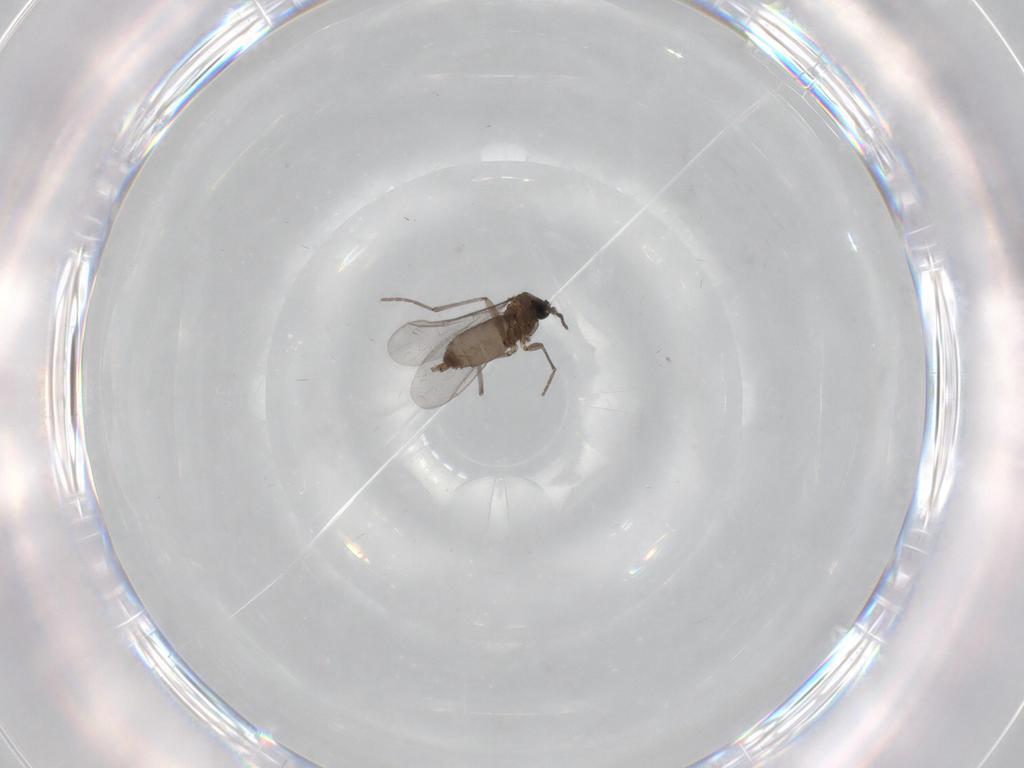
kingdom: Animalia
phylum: Arthropoda
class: Insecta
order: Diptera
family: Sciaridae
